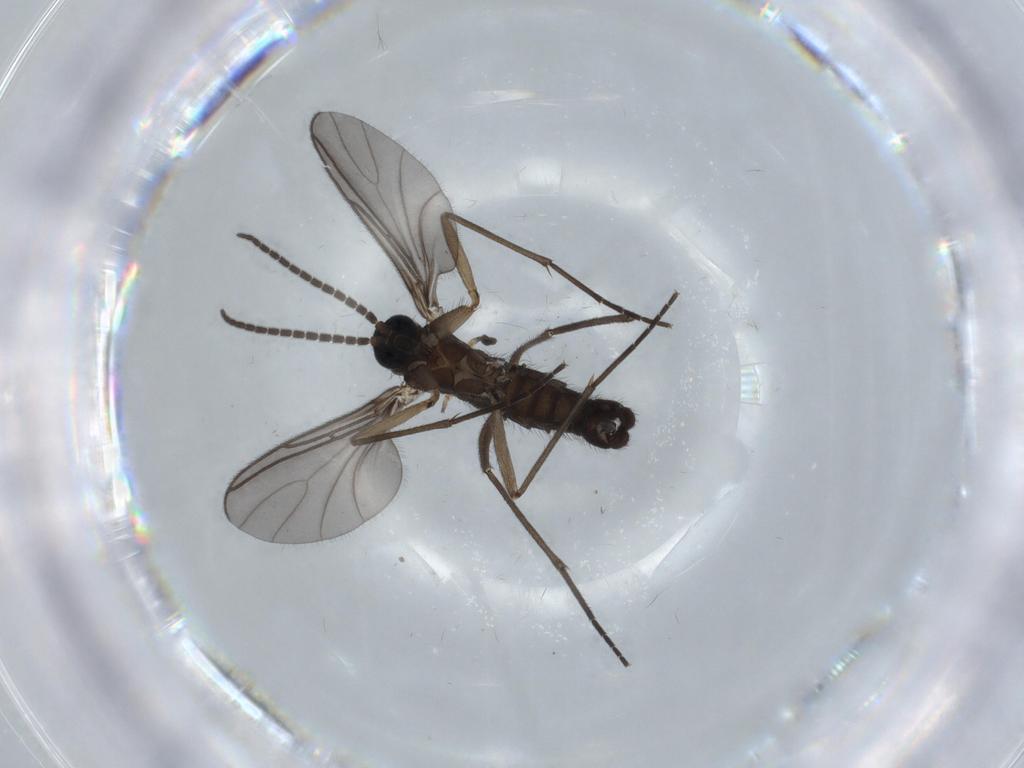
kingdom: Animalia
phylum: Arthropoda
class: Insecta
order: Diptera
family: Sciaridae
